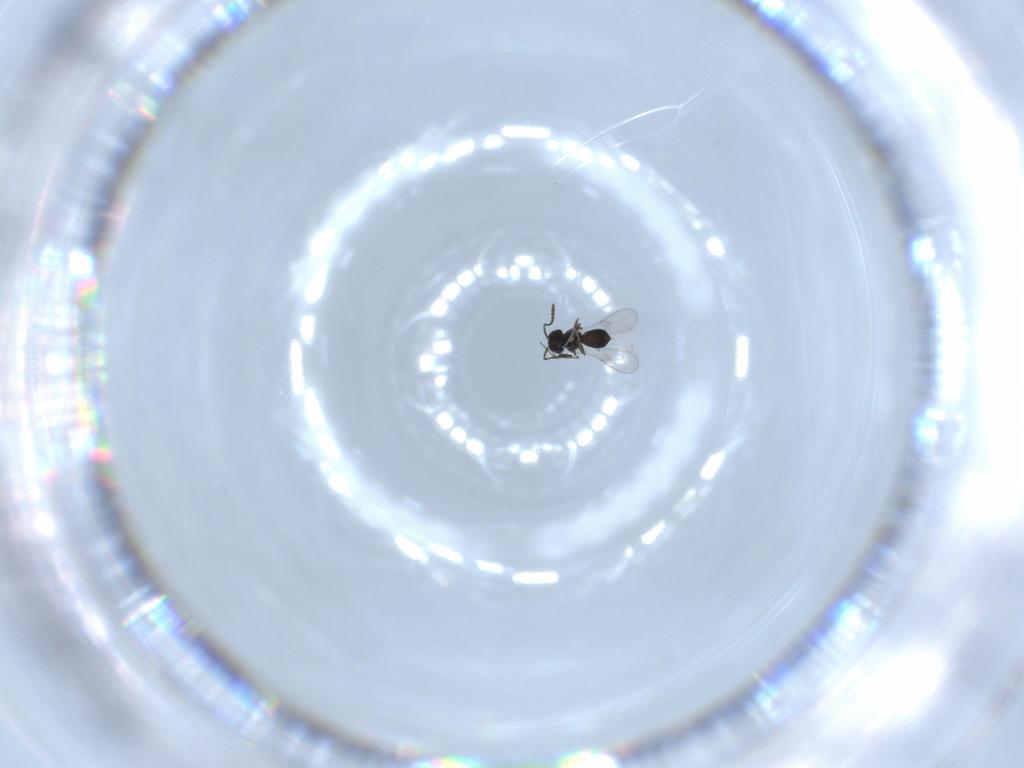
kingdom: Animalia
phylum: Arthropoda
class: Insecta
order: Hymenoptera
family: Scelionidae
